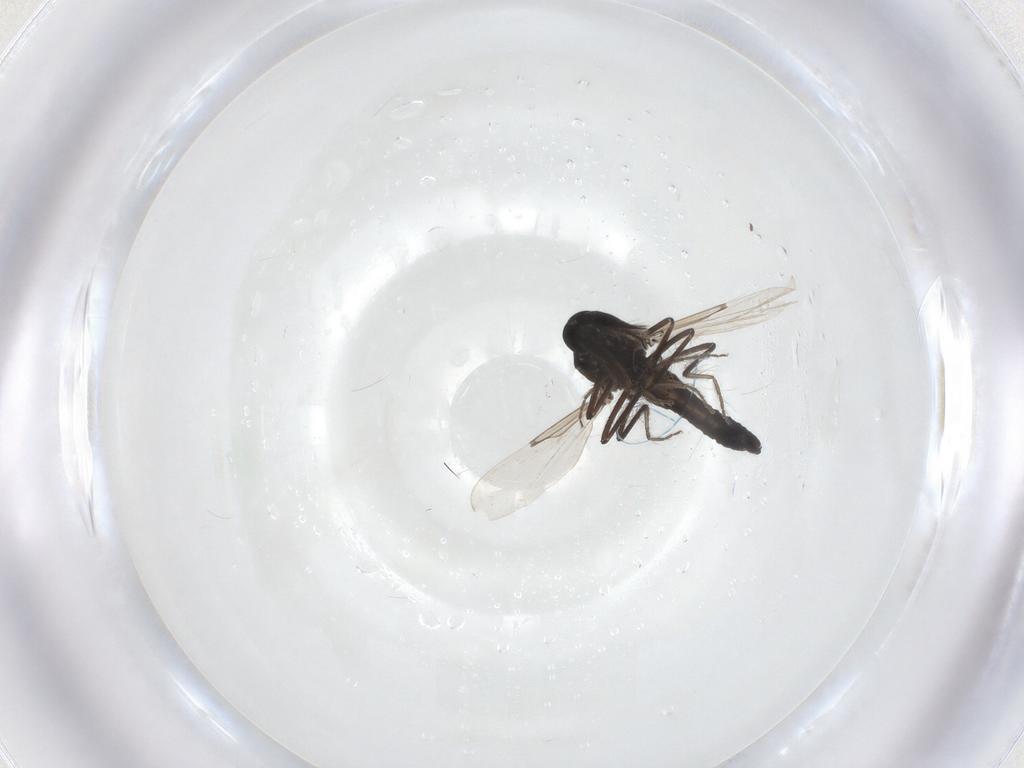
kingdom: Animalia
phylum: Arthropoda
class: Insecta
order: Diptera
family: Ceratopogonidae
